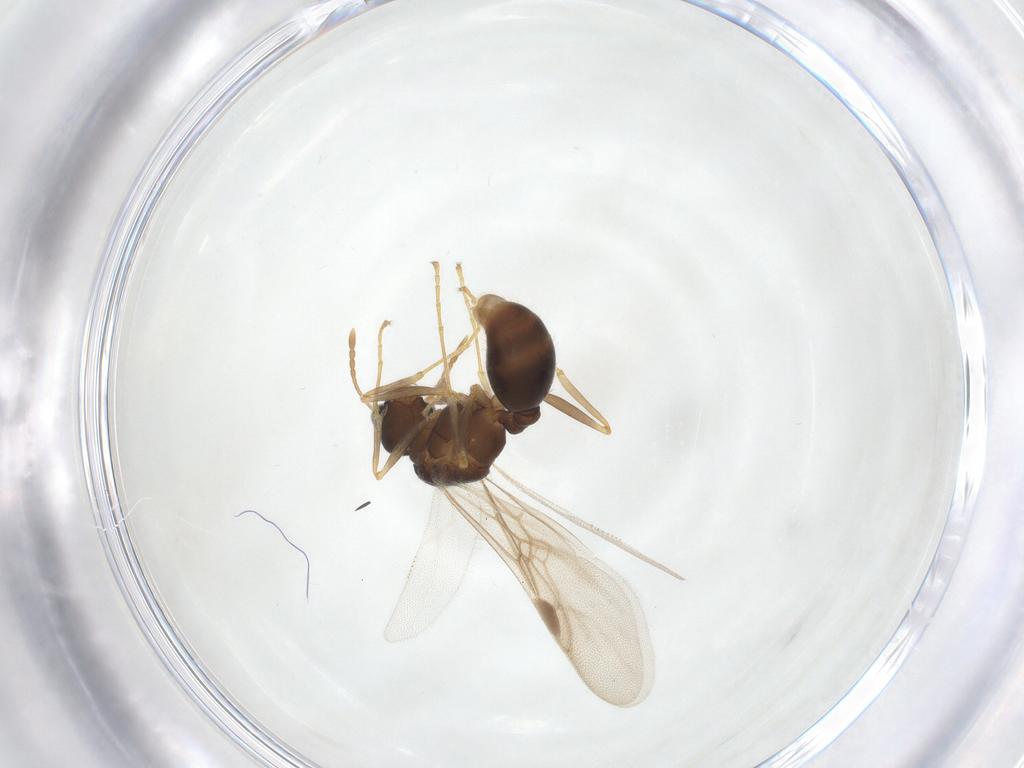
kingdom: Animalia
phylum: Arthropoda
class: Insecta
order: Hymenoptera
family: Formicidae
